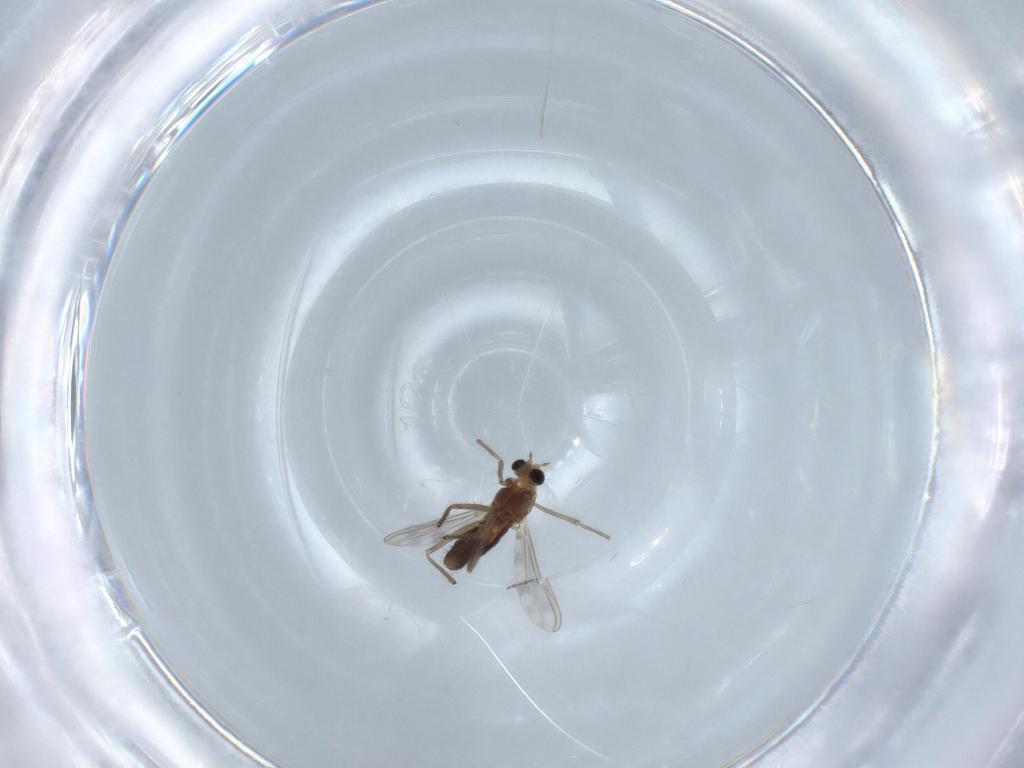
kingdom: Animalia
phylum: Arthropoda
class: Insecta
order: Diptera
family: Chironomidae
